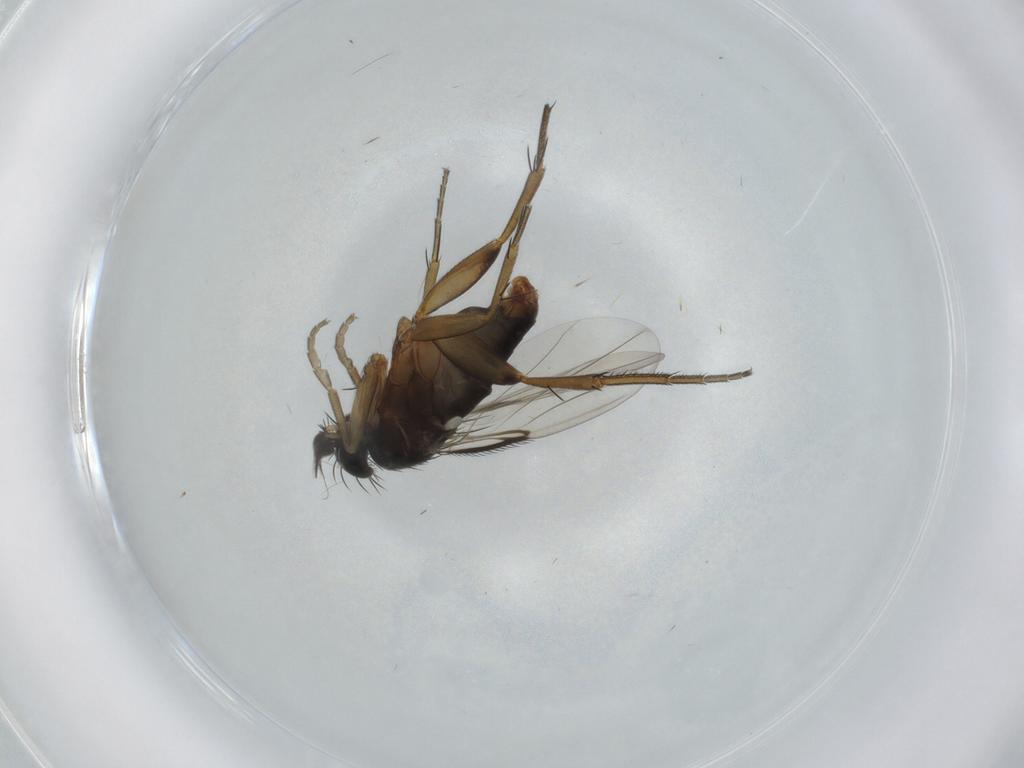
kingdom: Animalia
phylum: Arthropoda
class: Insecta
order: Diptera
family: Phoridae
